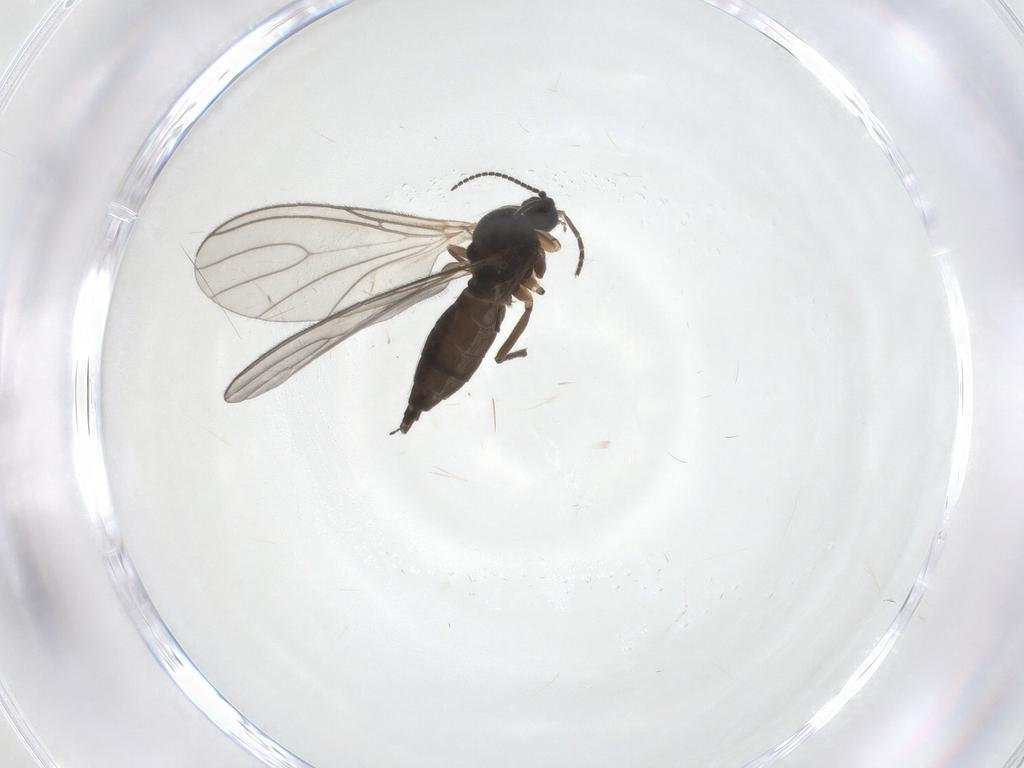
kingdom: Animalia
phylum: Arthropoda
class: Insecta
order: Diptera
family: Sciaridae
